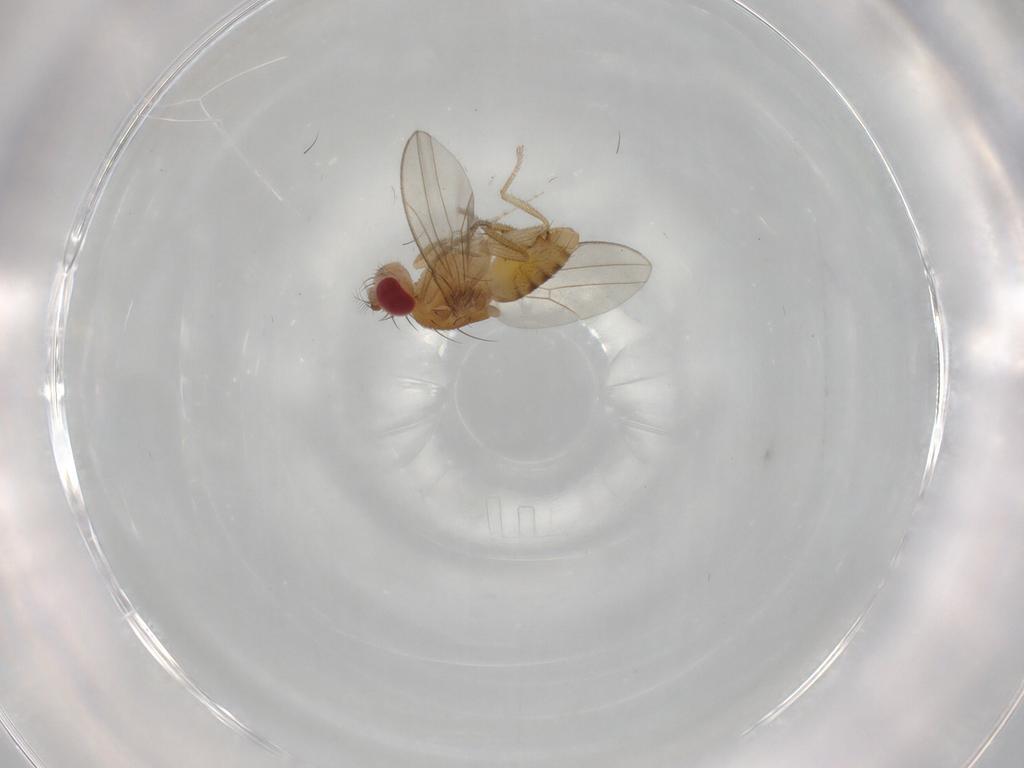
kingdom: Animalia
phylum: Arthropoda
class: Insecta
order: Diptera
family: Drosophilidae
